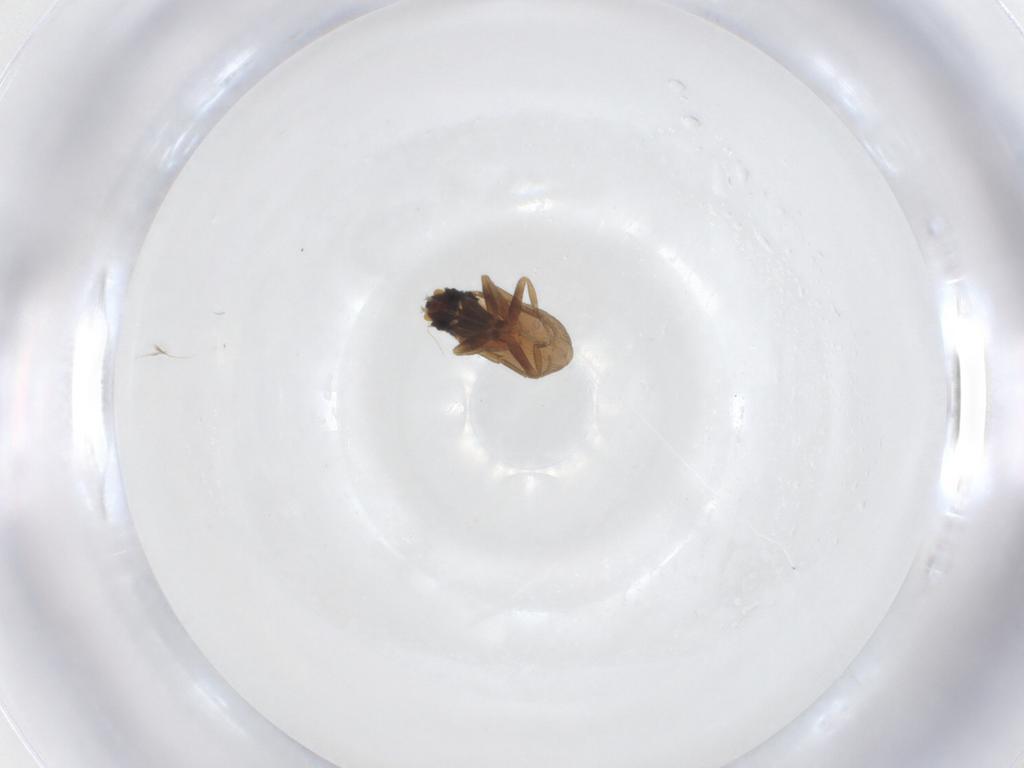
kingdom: Animalia
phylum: Arthropoda
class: Insecta
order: Diptera
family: Phoridae
